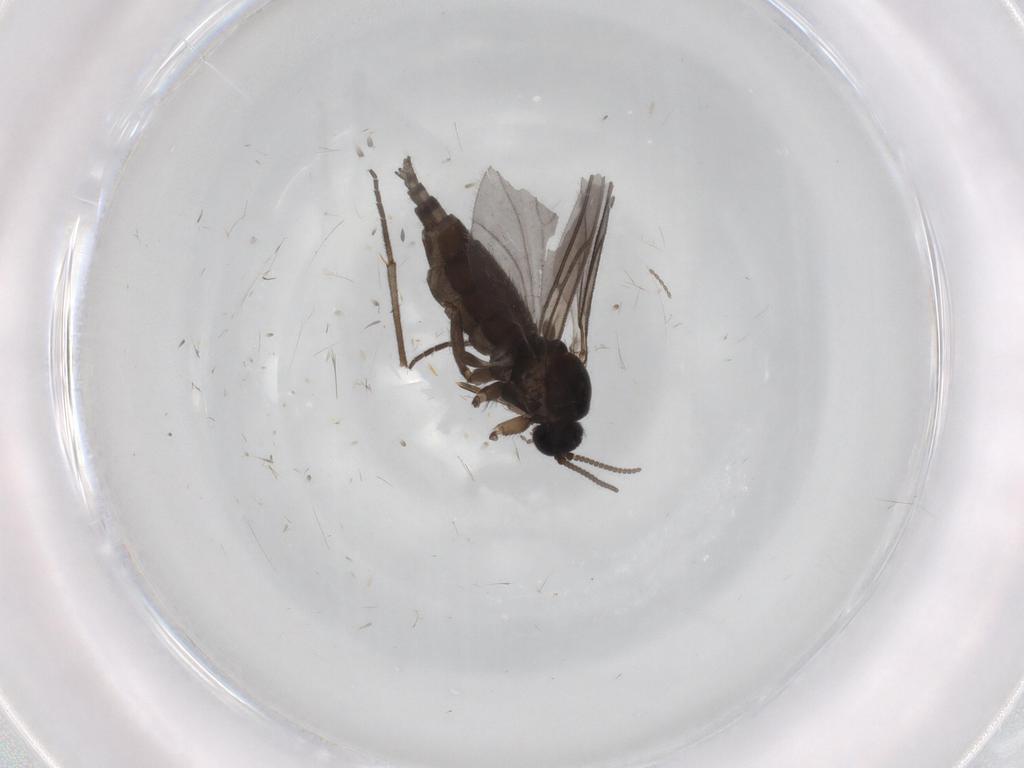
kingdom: Animalia
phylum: Arthropoda
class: Insecta
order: Diptera
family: Sciaridae
